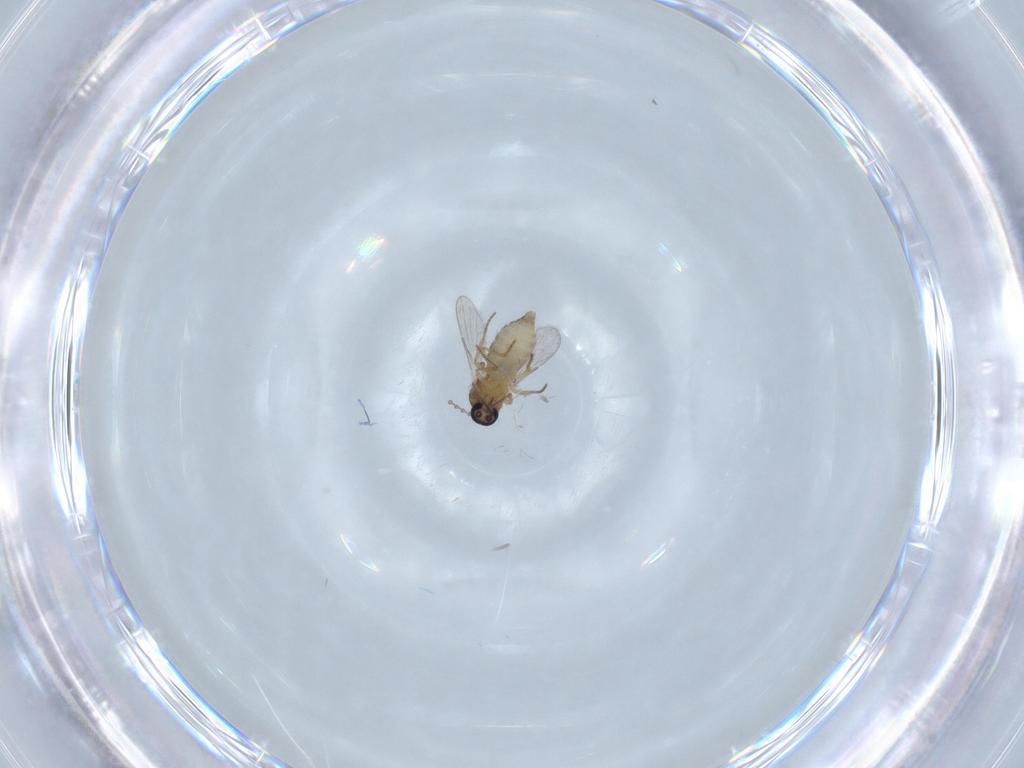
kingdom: Animalia
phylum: Arthropoda
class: Insecta
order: Diptera
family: Ceratopogonidae
